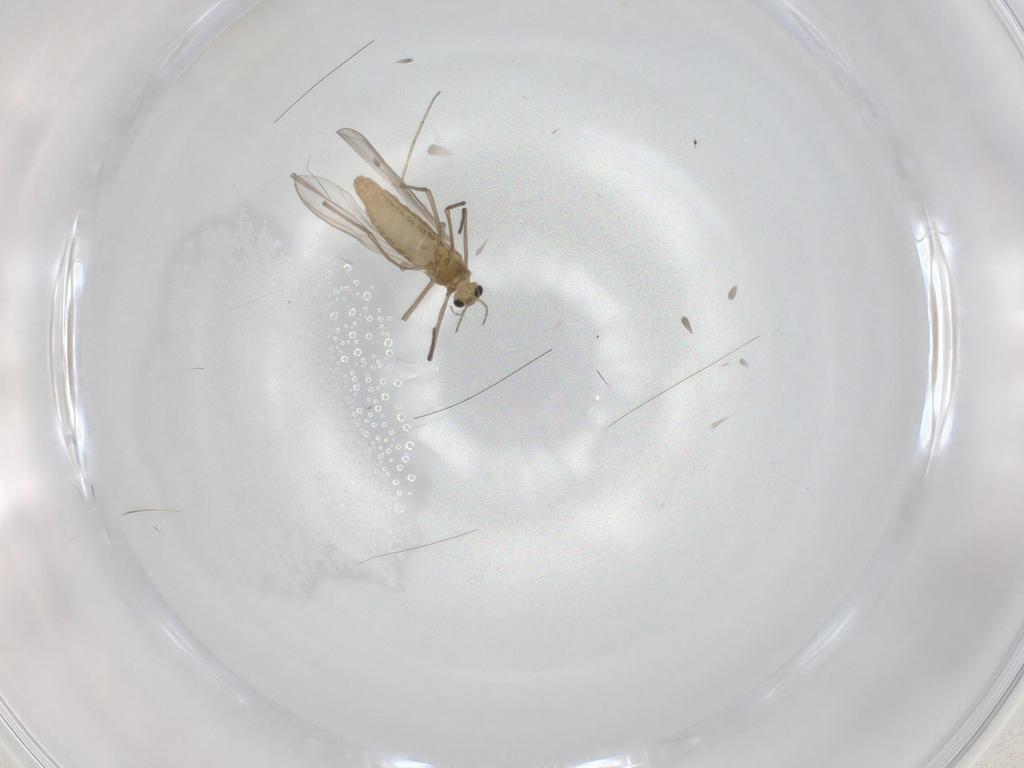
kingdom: Animalia
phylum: Arthropoda
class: Insecta
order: Diptera
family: Chironomidae
